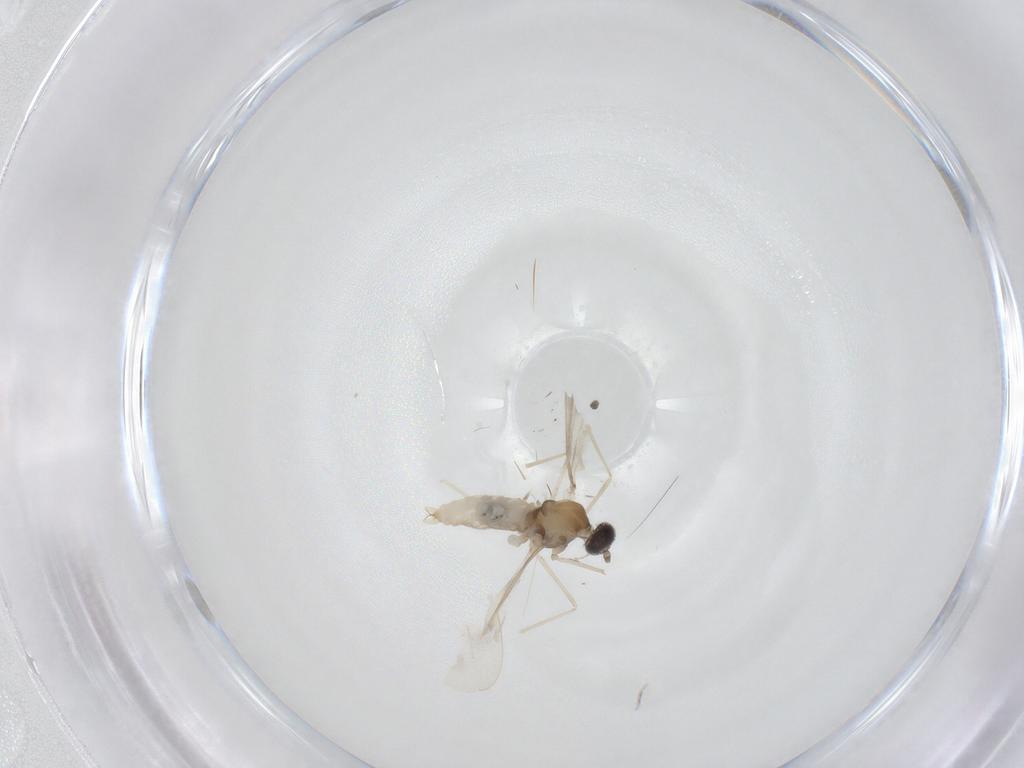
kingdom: Animalia
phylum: Arthropoda
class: Insecta
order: Diptera
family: Cecidomyiidae
